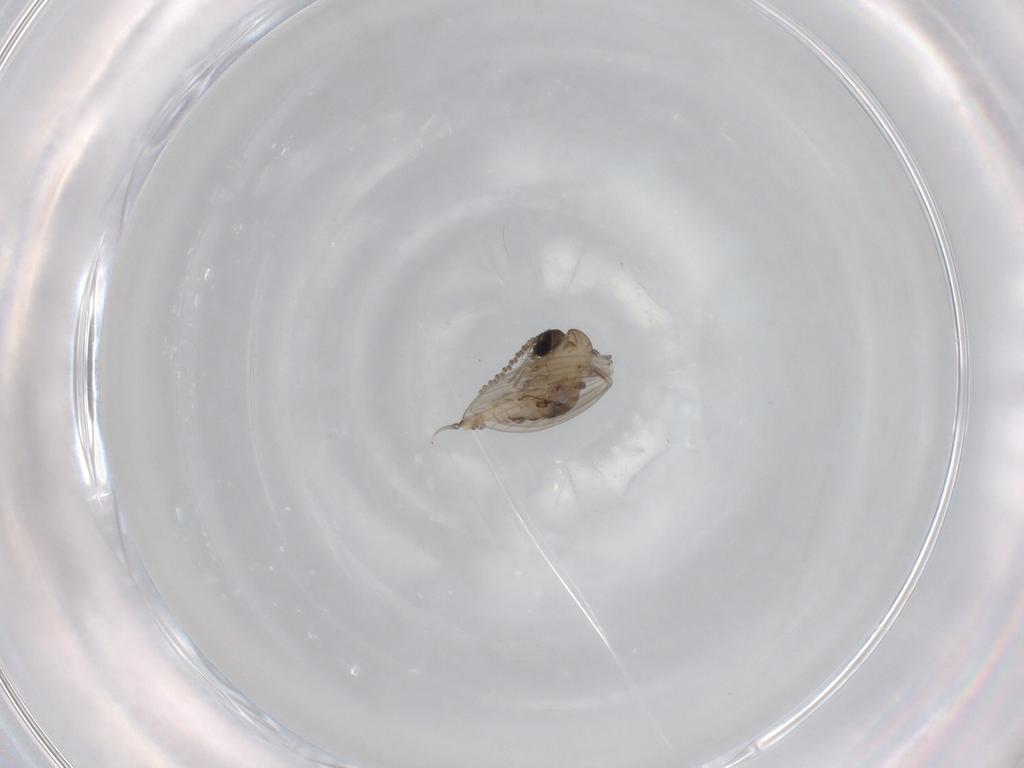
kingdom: Animalia
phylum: Arthropoda
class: Insecta
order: Diptera
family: Psychodidae
